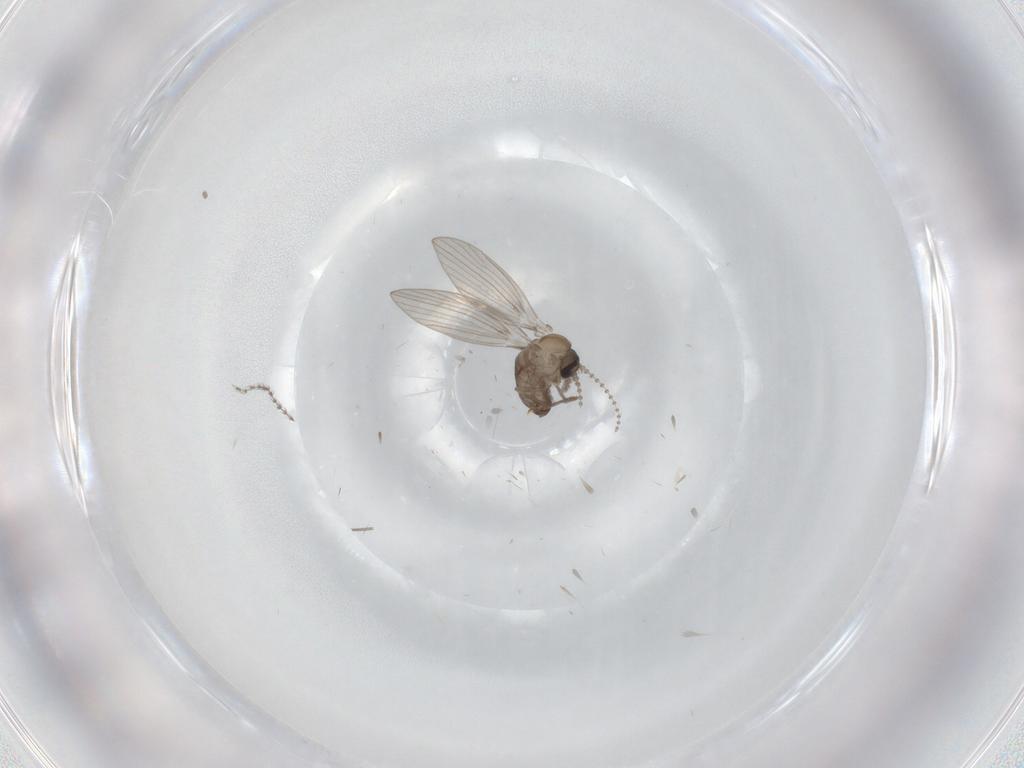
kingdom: Animalia
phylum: Arthropoda
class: Insecta
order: Diptera
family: Psychodidae
